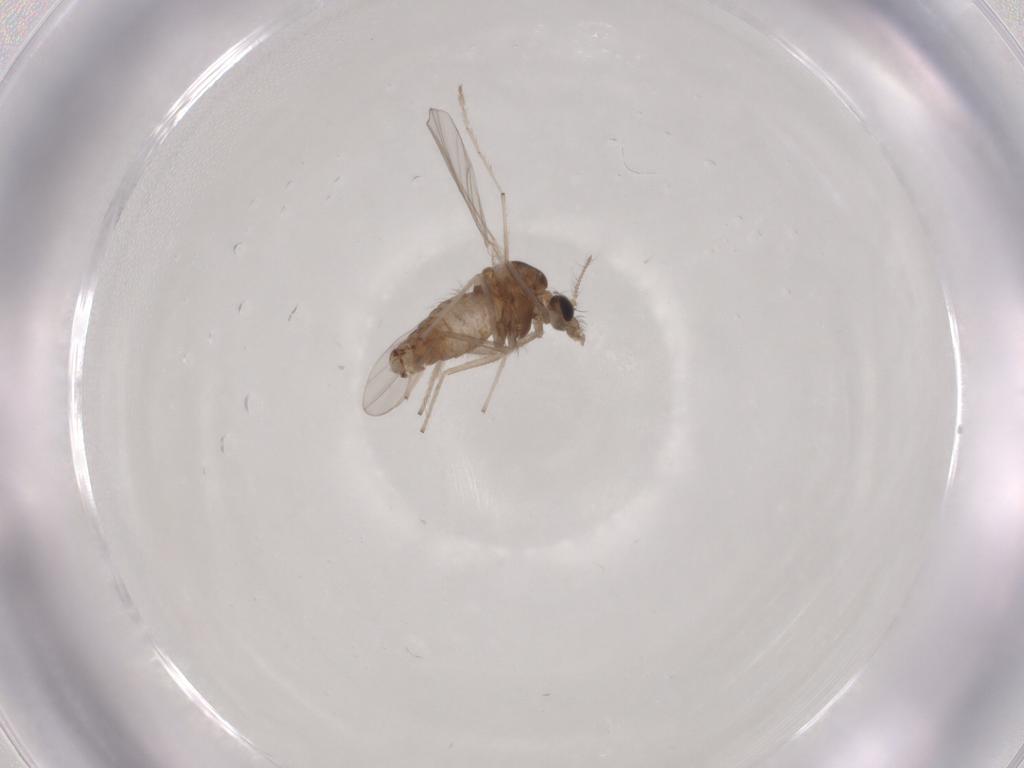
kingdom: Animalia
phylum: Arthropoda
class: Insecta
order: Diptera
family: Chironomidae
